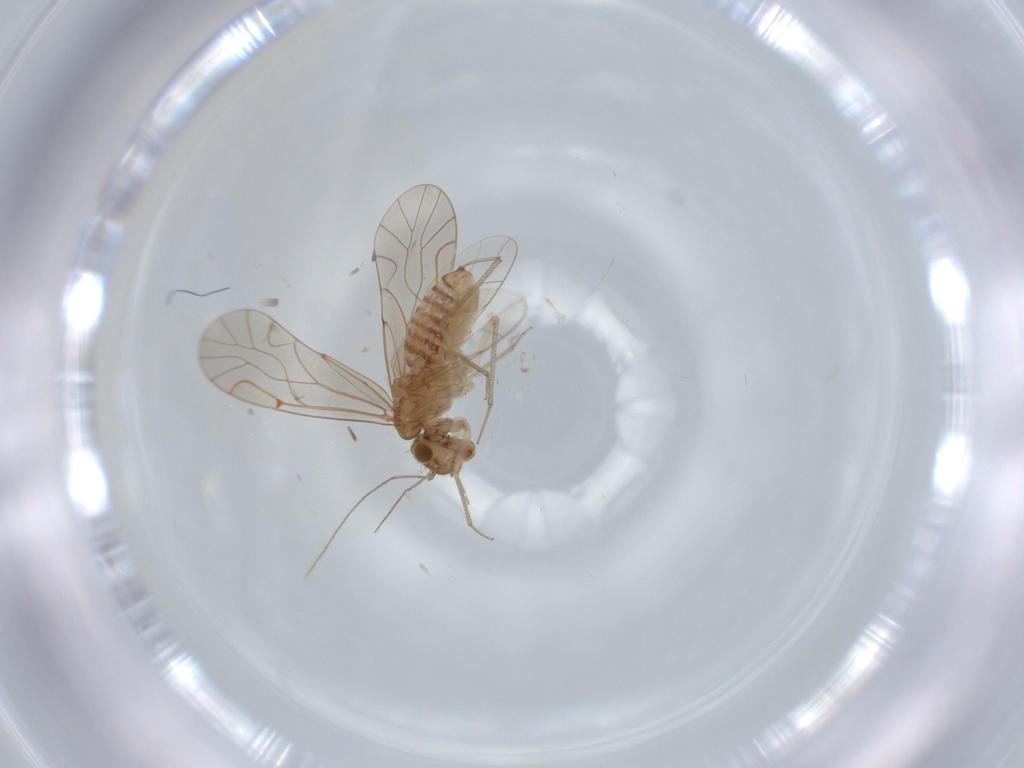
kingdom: Animalia
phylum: Arthropoda
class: Insecta
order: Psocodea
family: Lachesillidae
